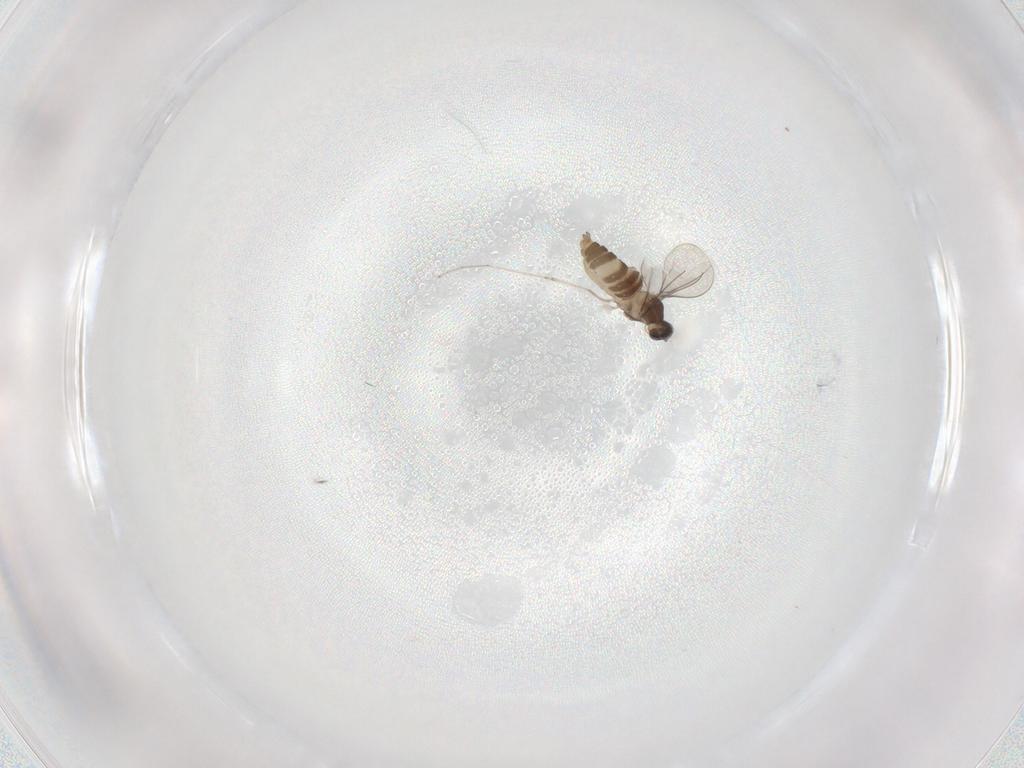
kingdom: Animalia
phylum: Arthropoda
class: Insecta
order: Diptera
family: Cecidomyiidae
